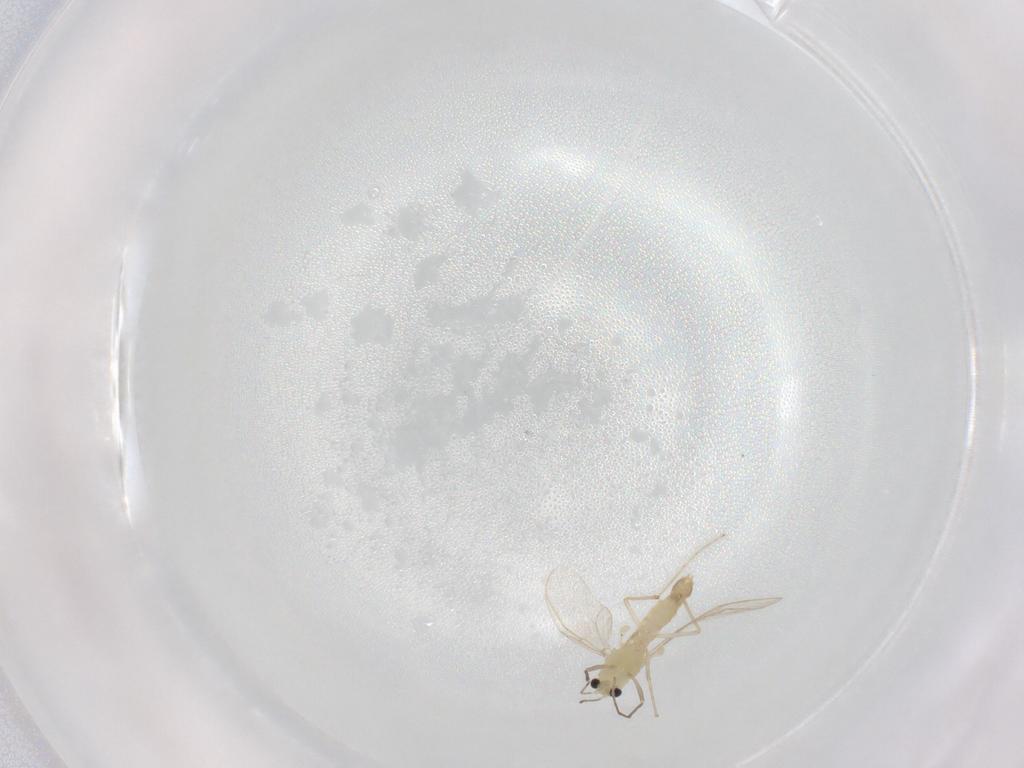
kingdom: Animalia
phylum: Arthropoda
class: Insecta
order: Diptera
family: Chironomidae
